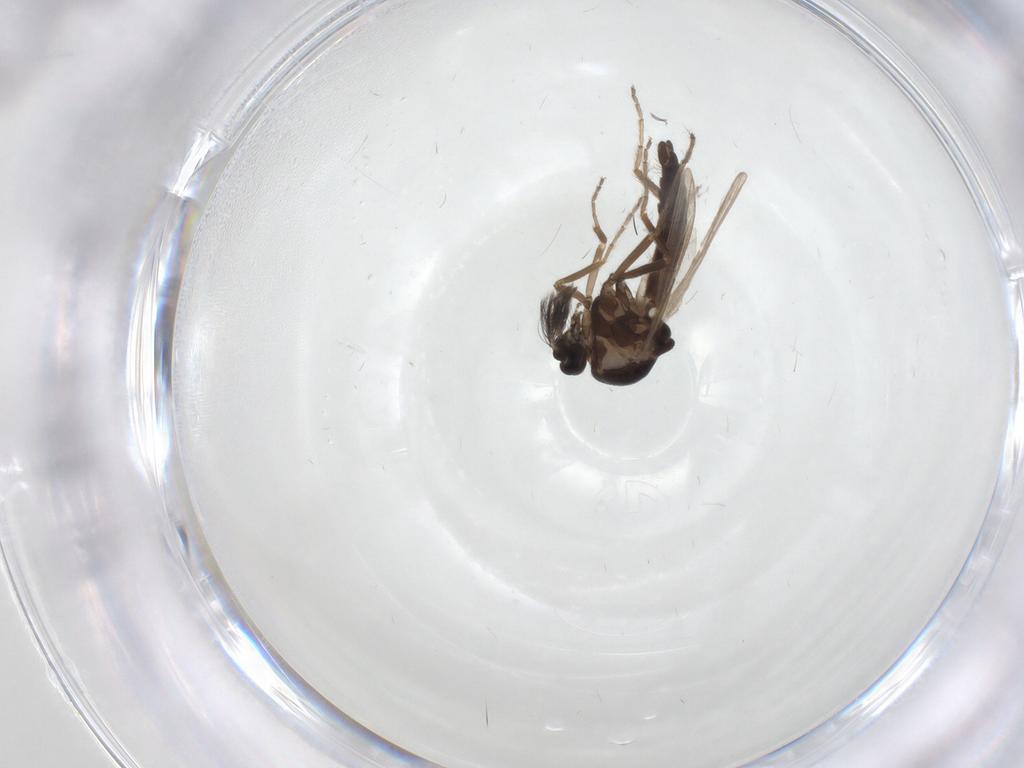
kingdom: Animalia
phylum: Arthropoda
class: Insecta
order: Diptera
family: Ceratopogonidae
